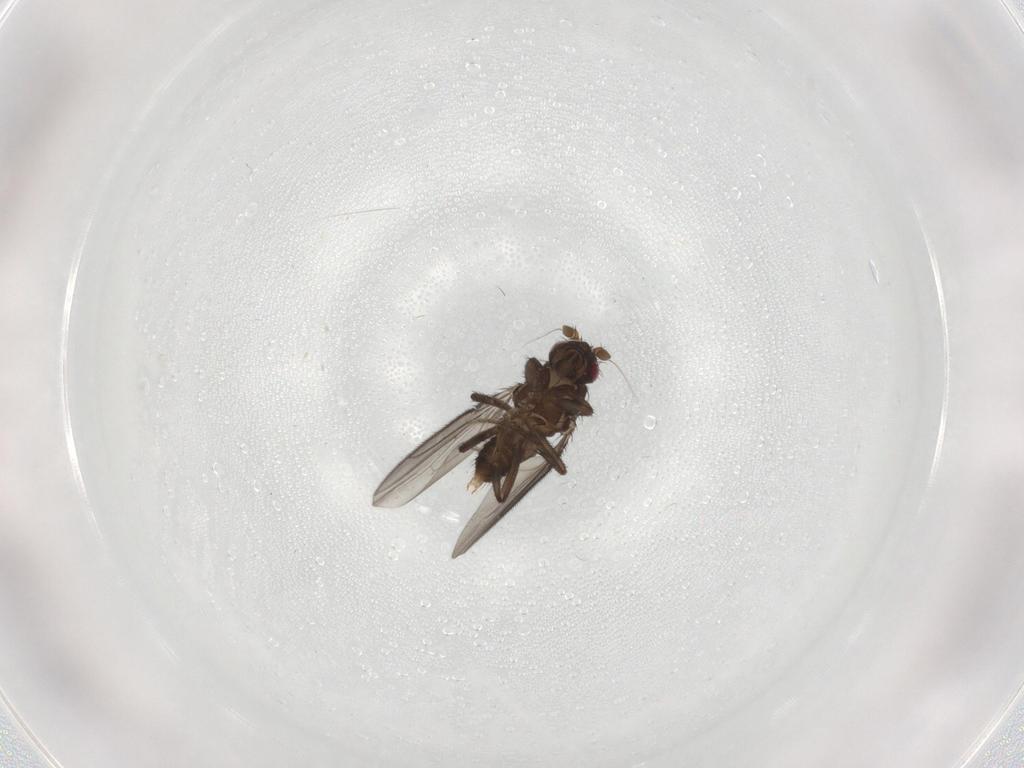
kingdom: Animalia
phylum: Arthropoda
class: Insecta
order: Diptera
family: Sphaeroceridae
